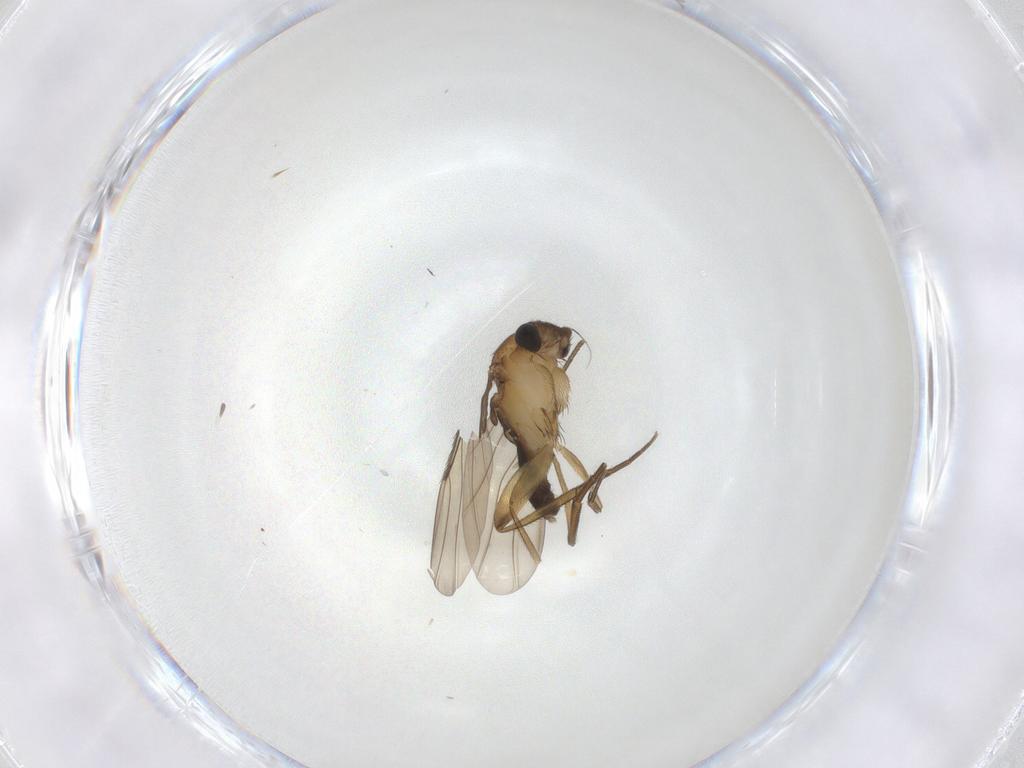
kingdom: Animalia
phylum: Arthropoda
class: Insecta
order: Diptera
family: Phoridae
